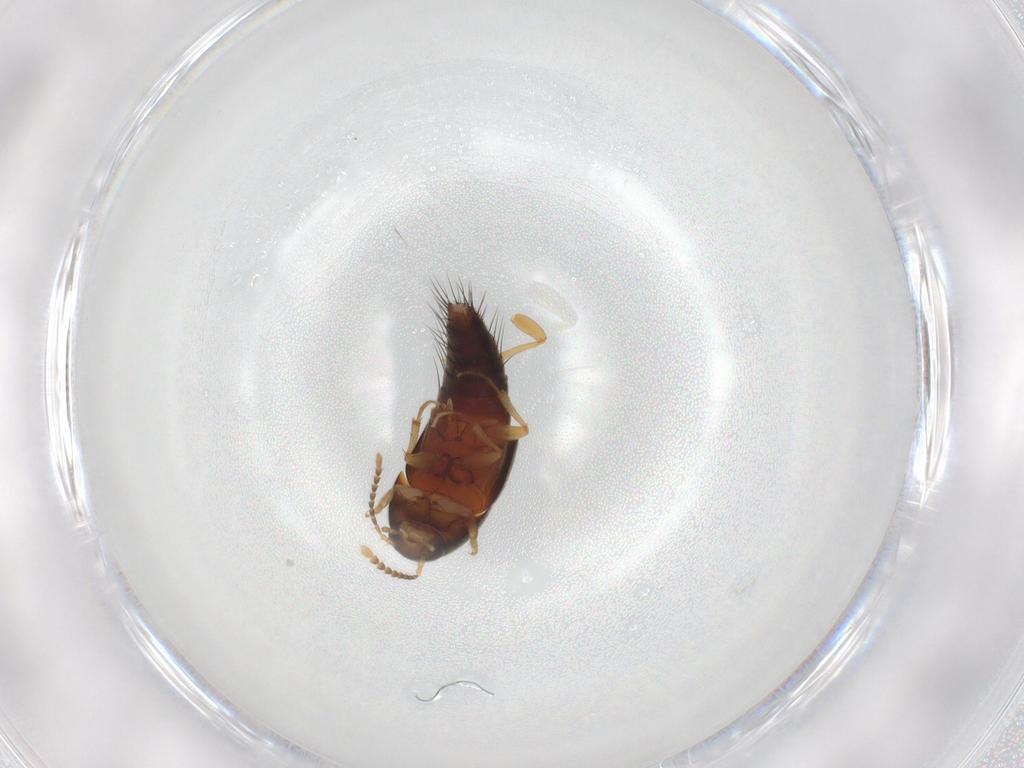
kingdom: Animalia
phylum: Arthropoda
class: Insecta
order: Coleoptera
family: Staphylinidae
